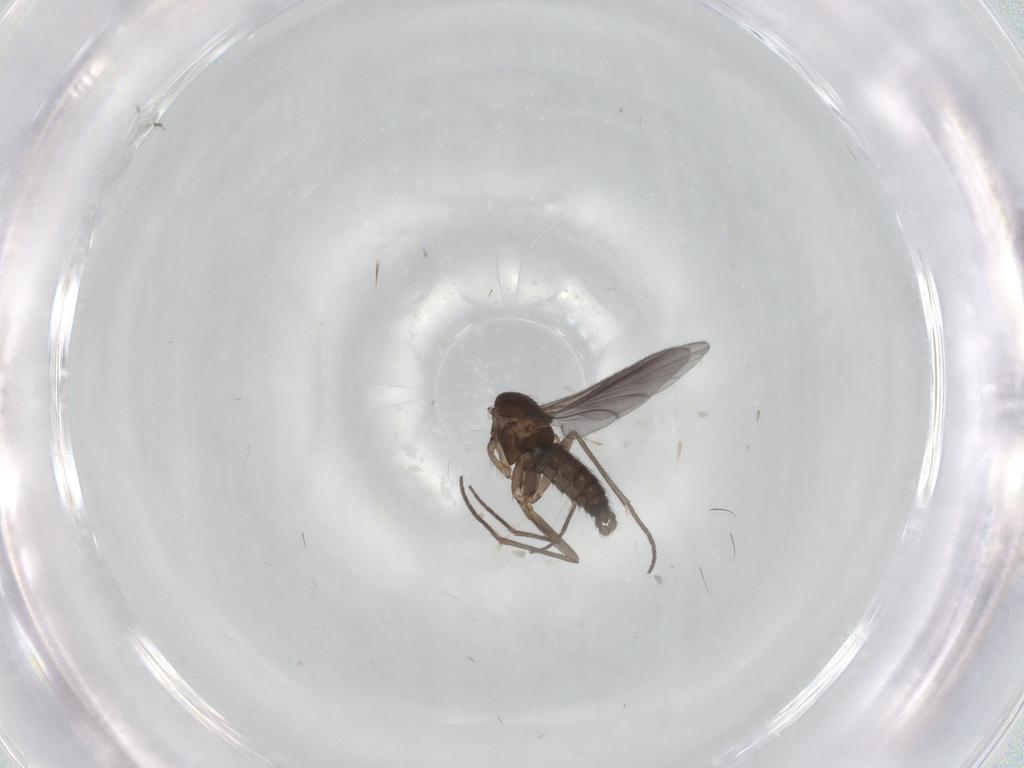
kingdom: Animalia
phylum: Arthropoda
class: Insecta
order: Diptera
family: Sciaridae
